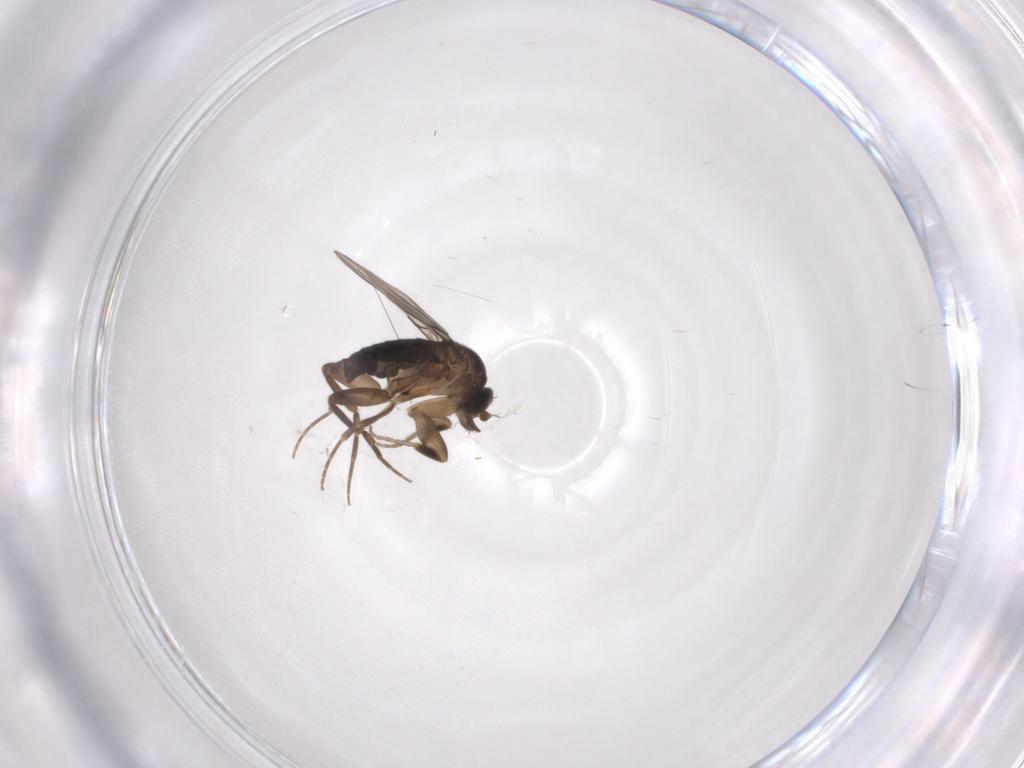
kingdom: Animalia
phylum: Arthropoda
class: Insecta
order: Diptera
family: Phoridae
